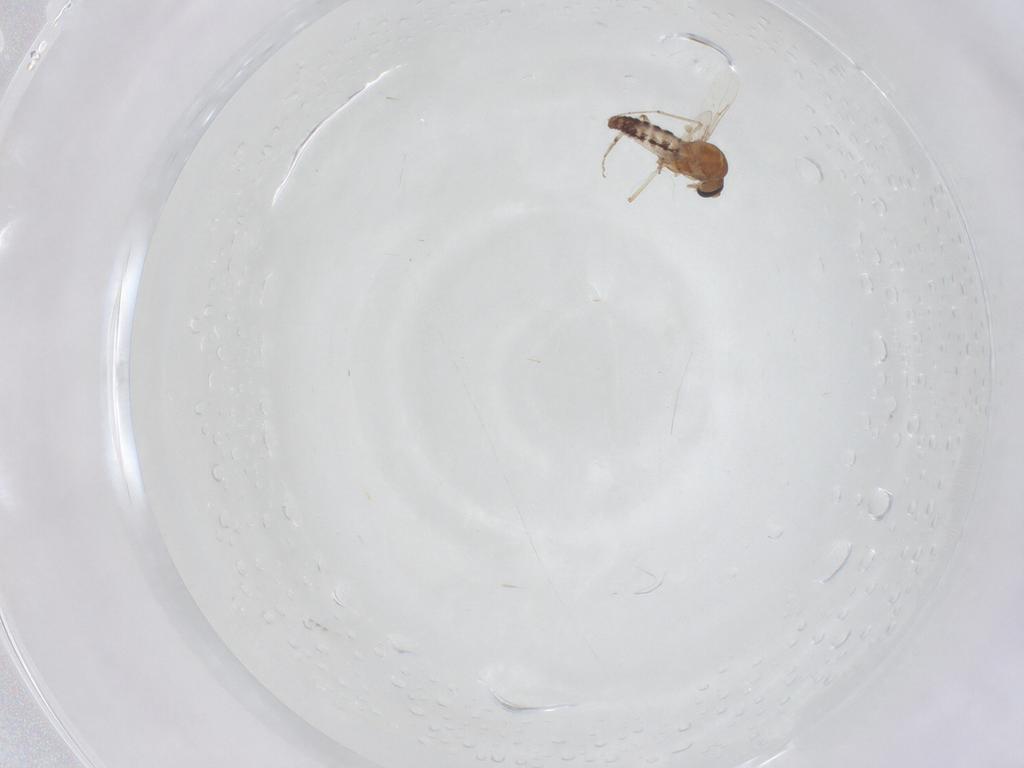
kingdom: Animalia
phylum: Arthropoda
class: Insecta
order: Diptera
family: Ceratopogonidae
